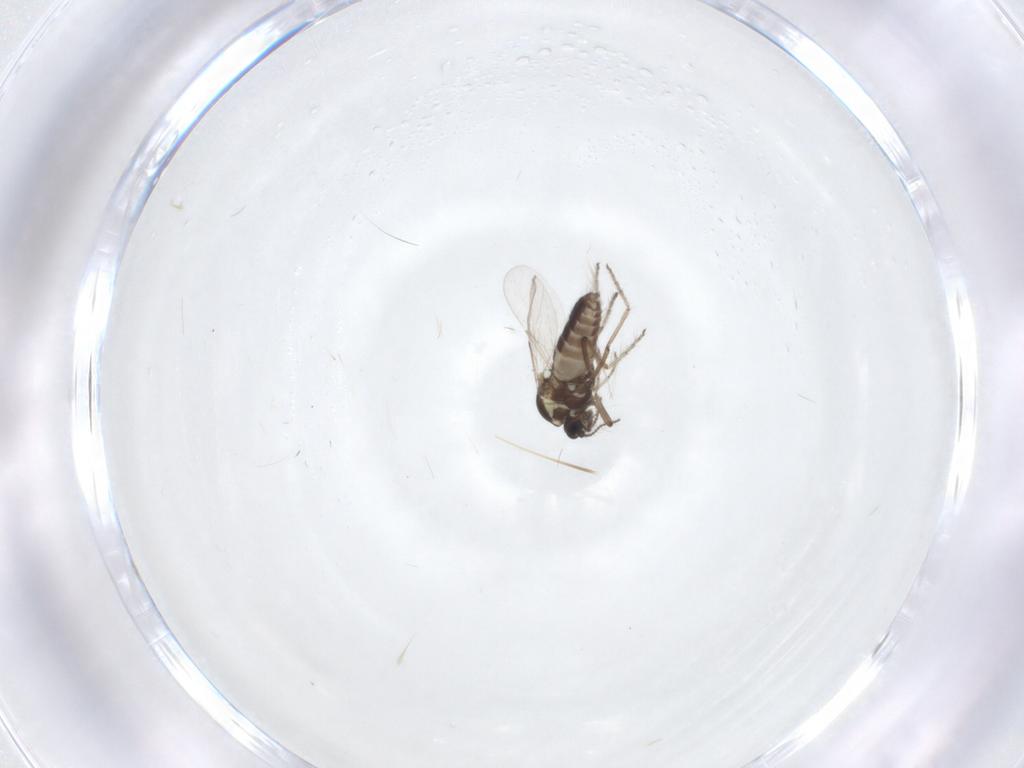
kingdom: Animalia
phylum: Arthropoda
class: Insecta
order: Diptera
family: Ceratopogonidae
